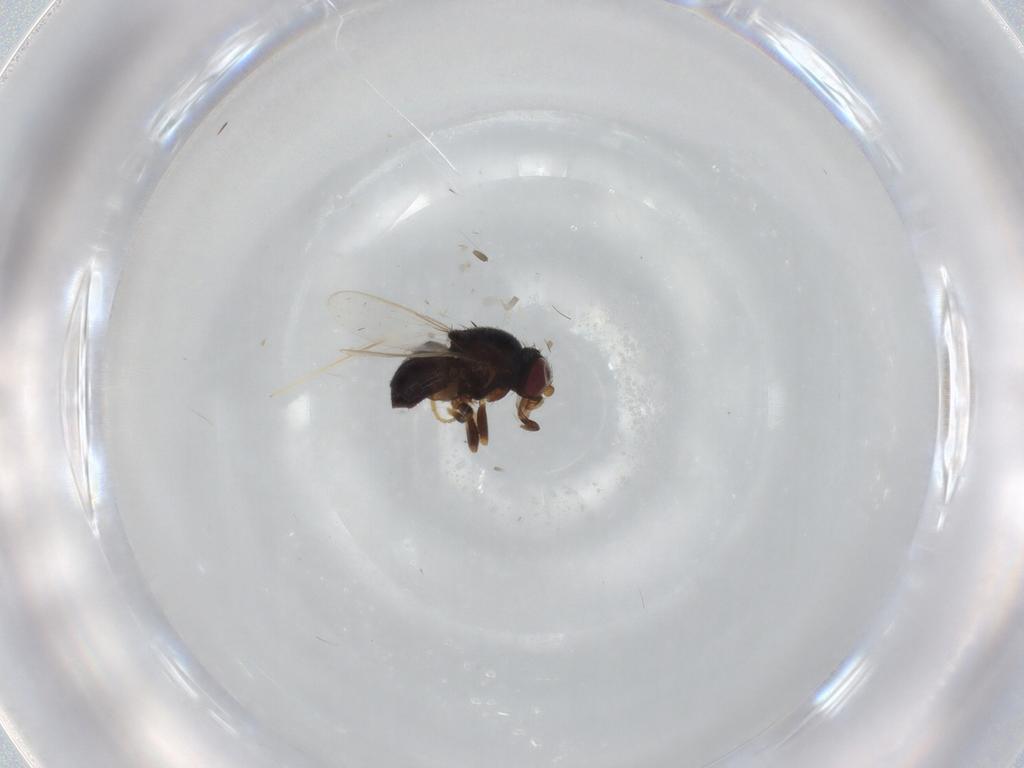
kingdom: Animalia
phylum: Arthropoda
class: Insecta
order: Diptera
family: Chloropidae
